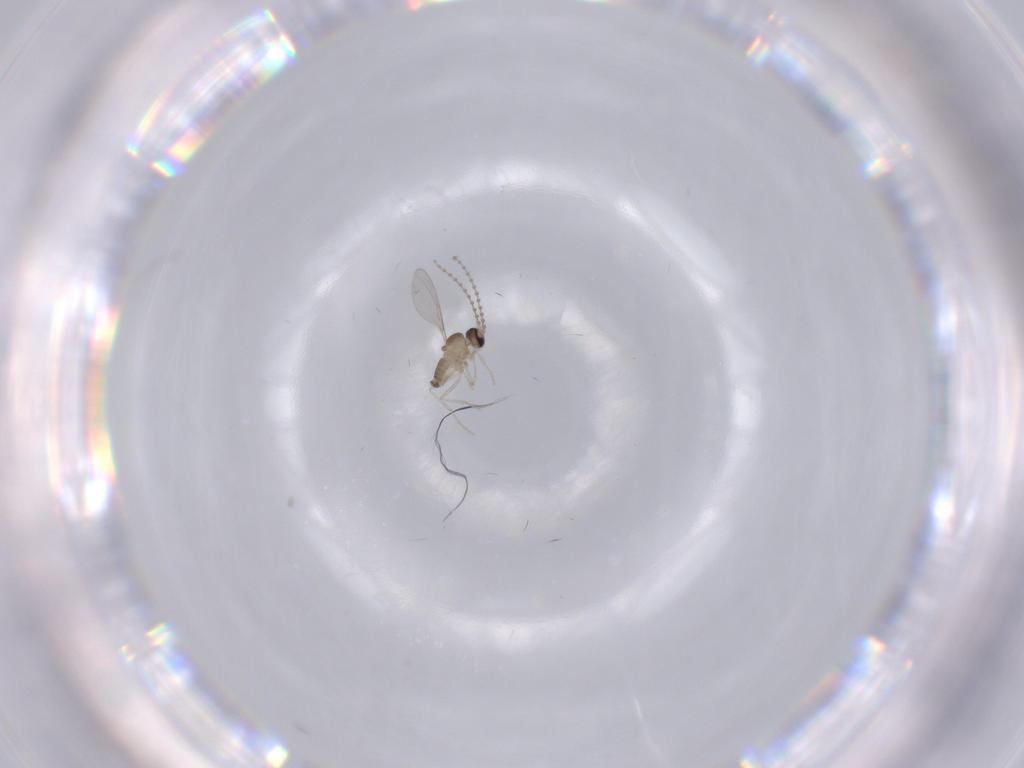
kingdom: Animalia
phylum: Arthropoda
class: Insecta
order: Diptera
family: Cecidomyiidae
